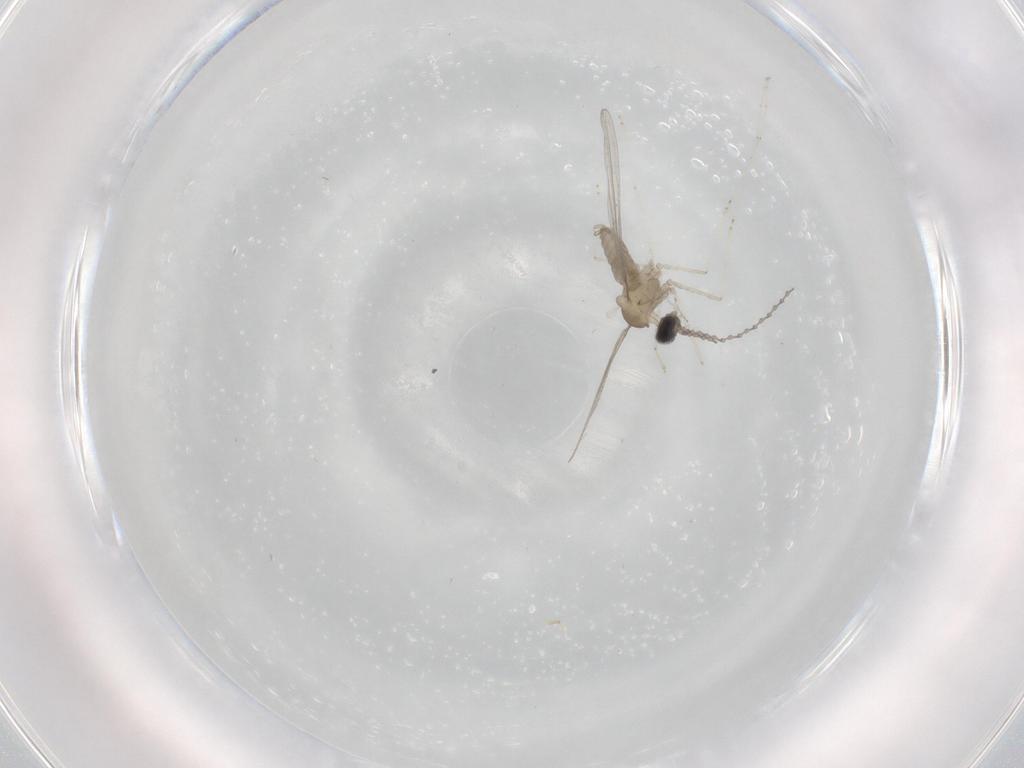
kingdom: Animalia
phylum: Arthropoda
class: Insecta
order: Diptera
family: Cecidomyiidae
